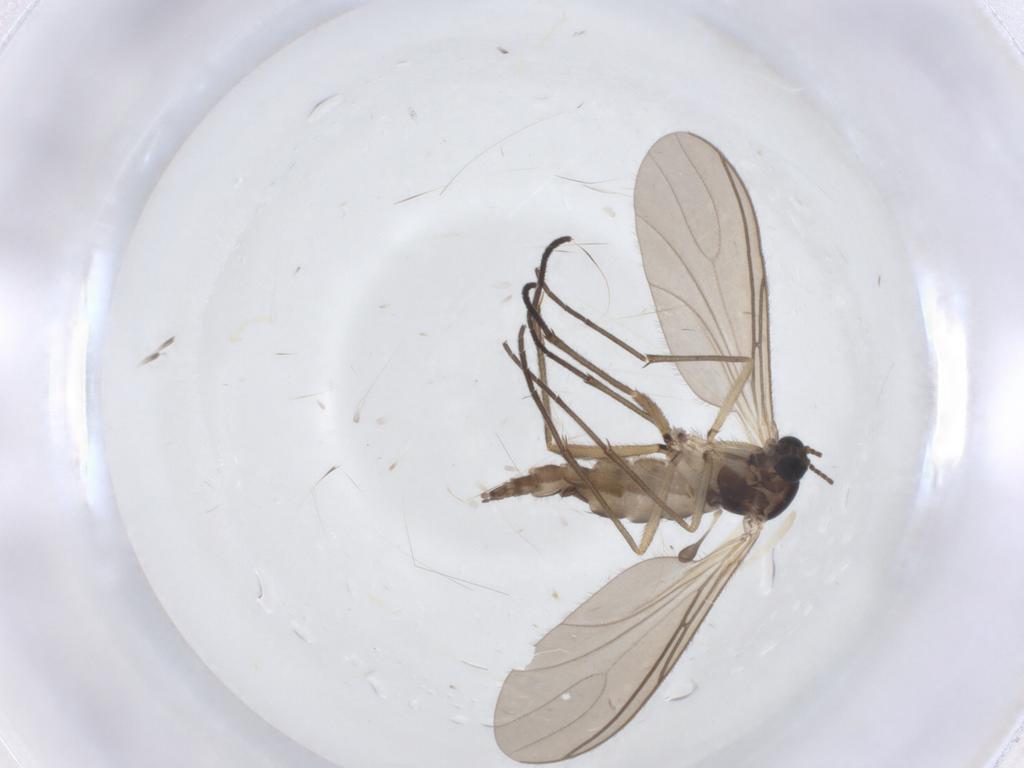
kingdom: Animalia
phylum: Arthropoda
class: Insecta
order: Diptera
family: Sciaridae
